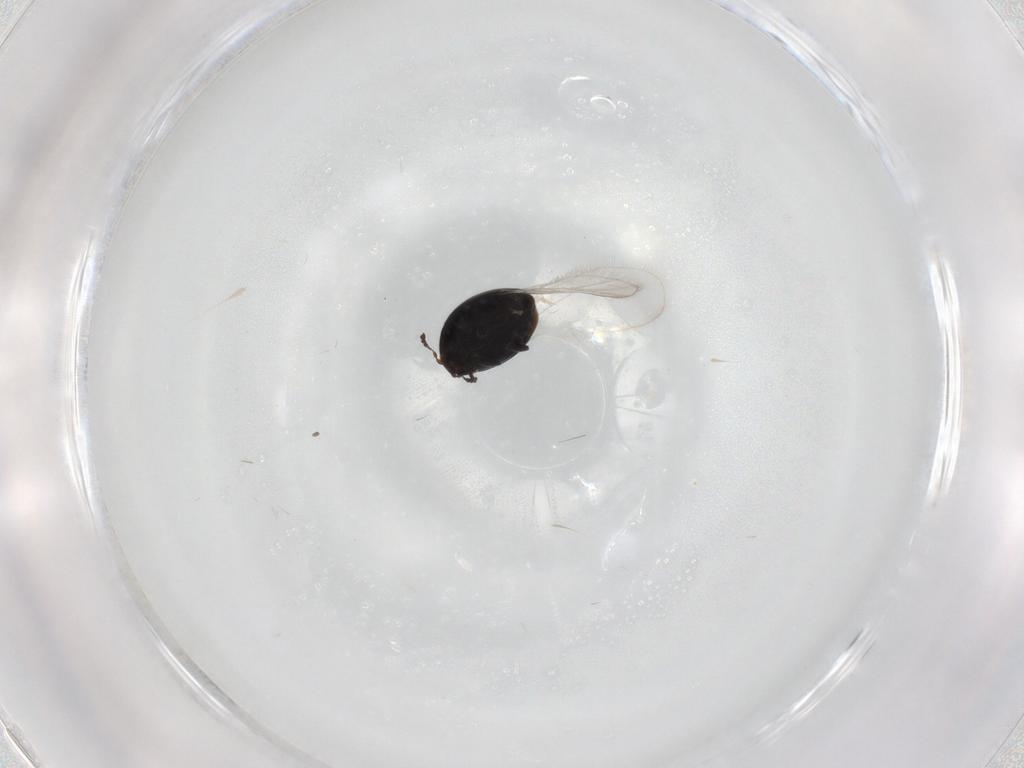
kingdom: Animalia
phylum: Arthropoda
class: Insecta
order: Coleoptera
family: Corylophidae
